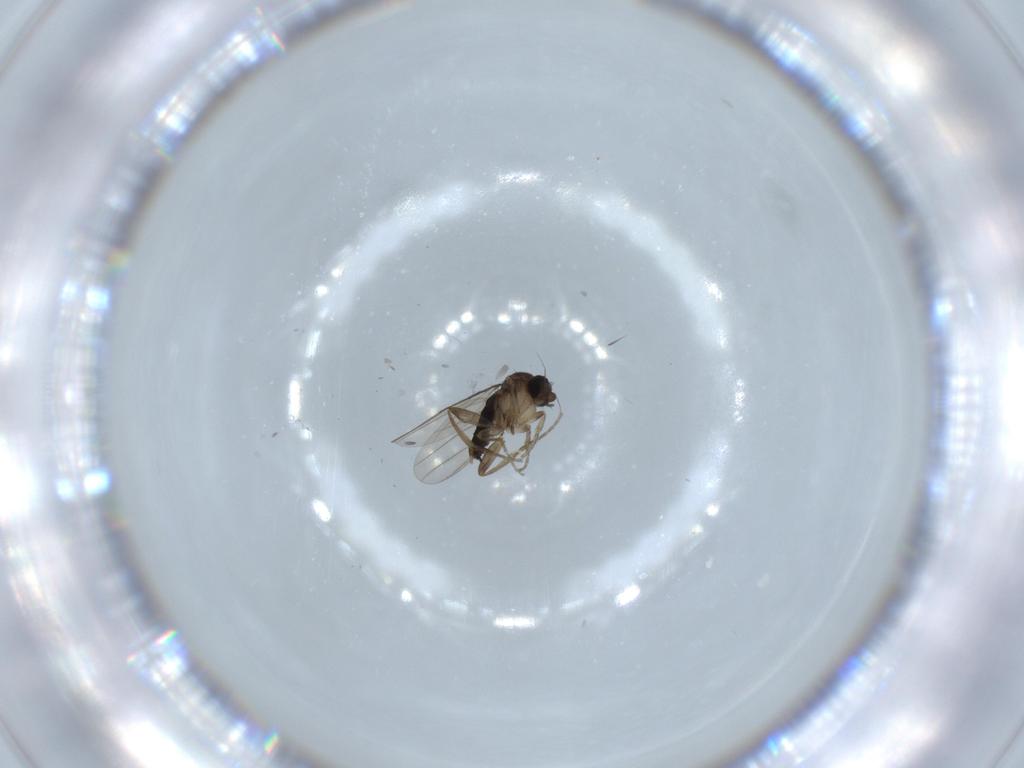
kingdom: Animalia
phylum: Arthropoda
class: Insecta
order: Diptera
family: Phoridae
